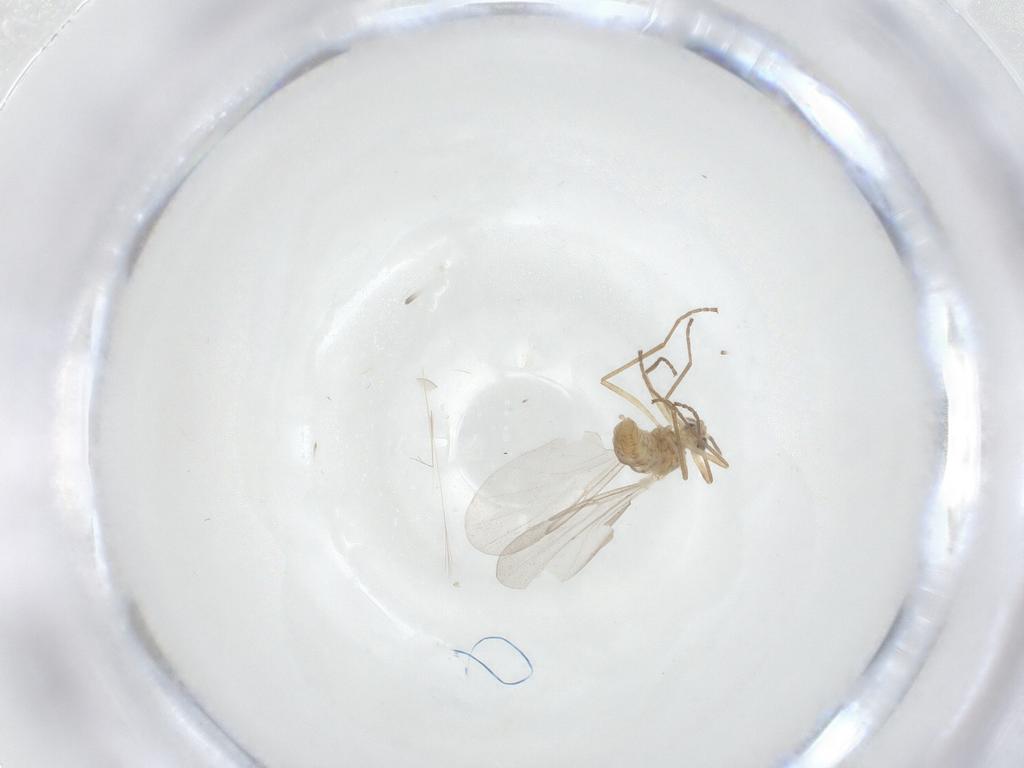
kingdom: Animalia
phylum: Arthropoda
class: Insecta
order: Diptera
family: Cecidomyiidae
